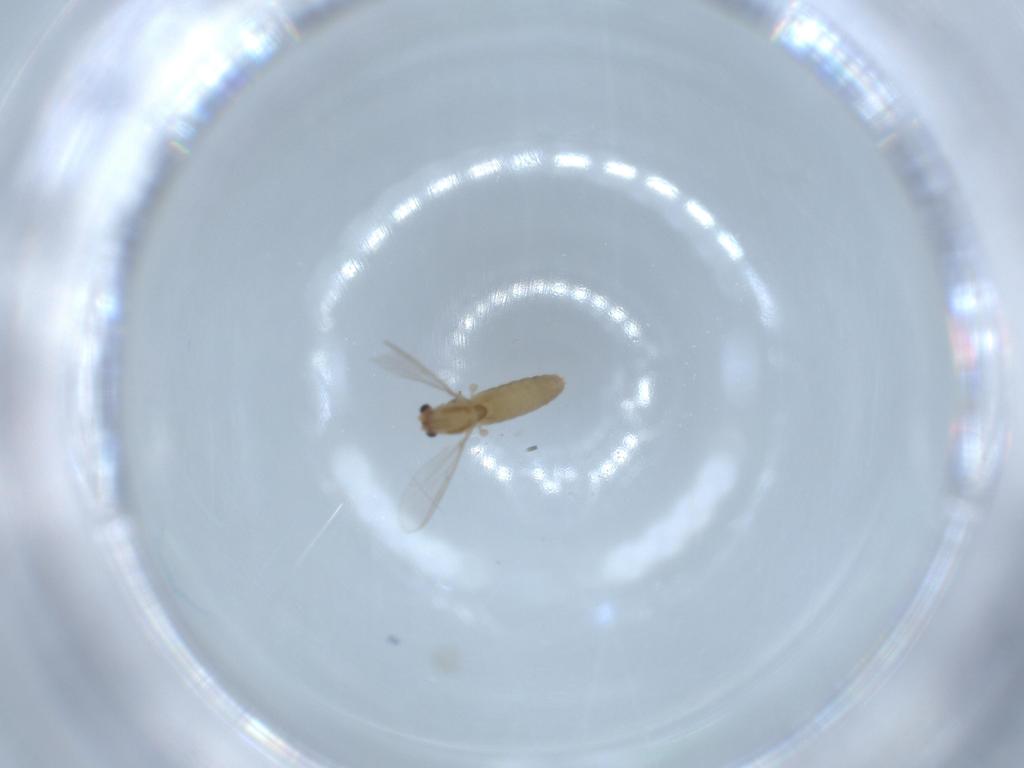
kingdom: Animalia
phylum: Arthropoda
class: Insecta
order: Diptera
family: Chironomidae
